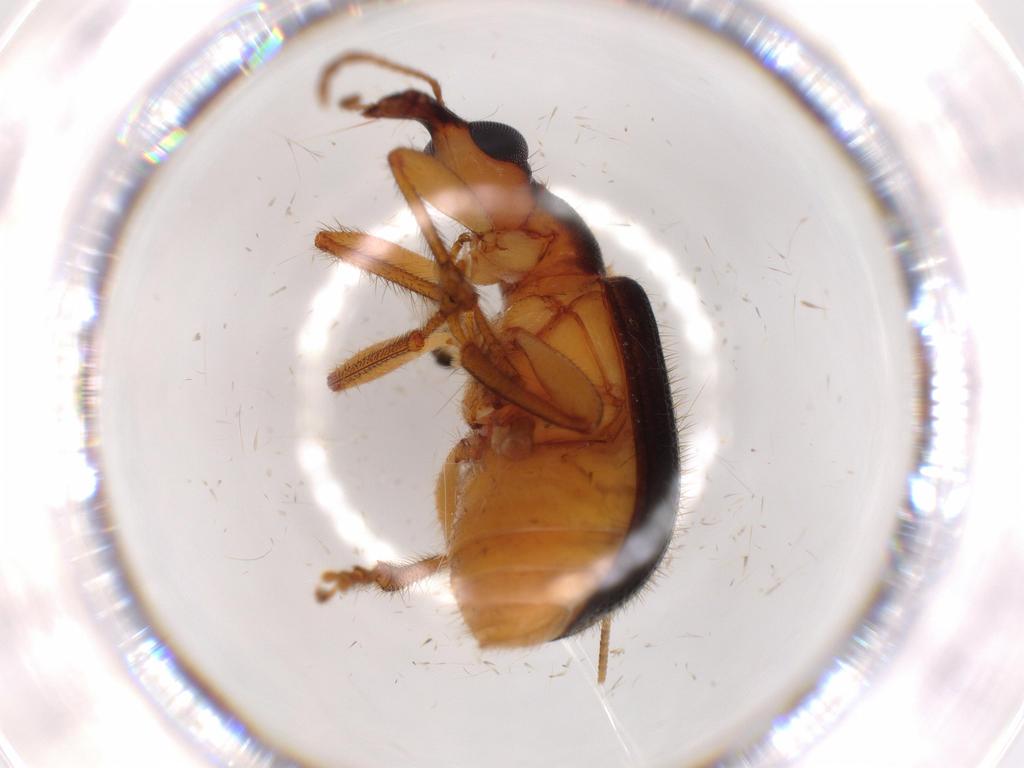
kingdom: Animalia
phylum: Arthropoda
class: Insecta
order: Coleoptera
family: Attelabidae
